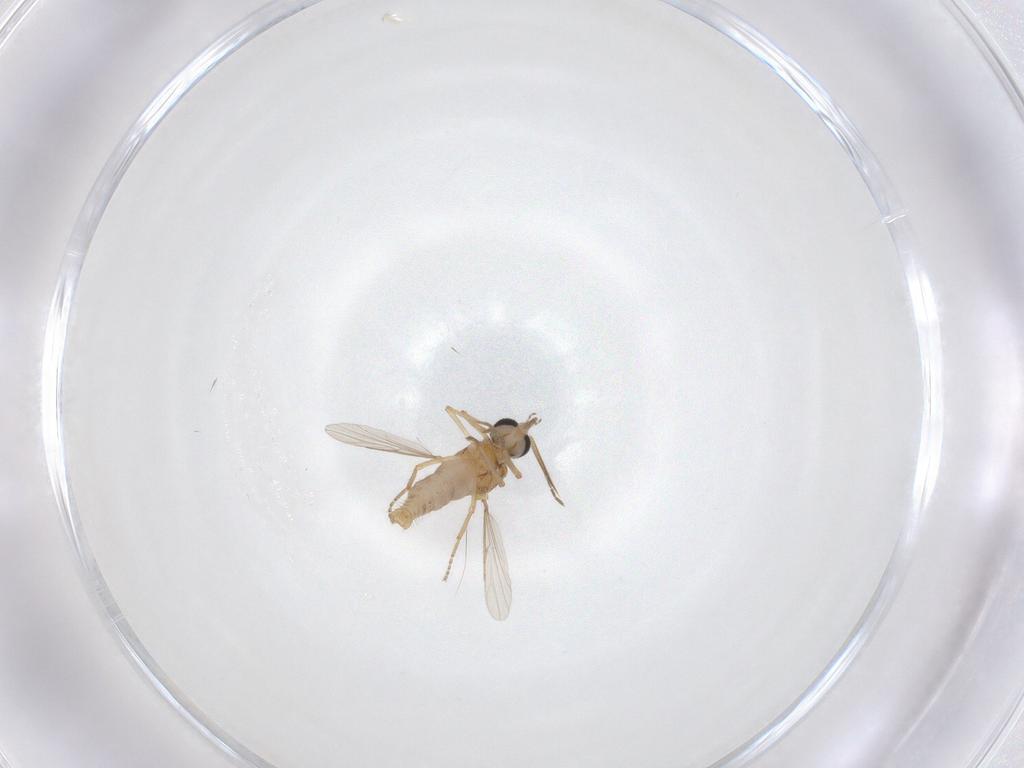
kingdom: Animalia
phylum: Arthropoda
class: Insecta
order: Diptera
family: Ceratopogonidae
